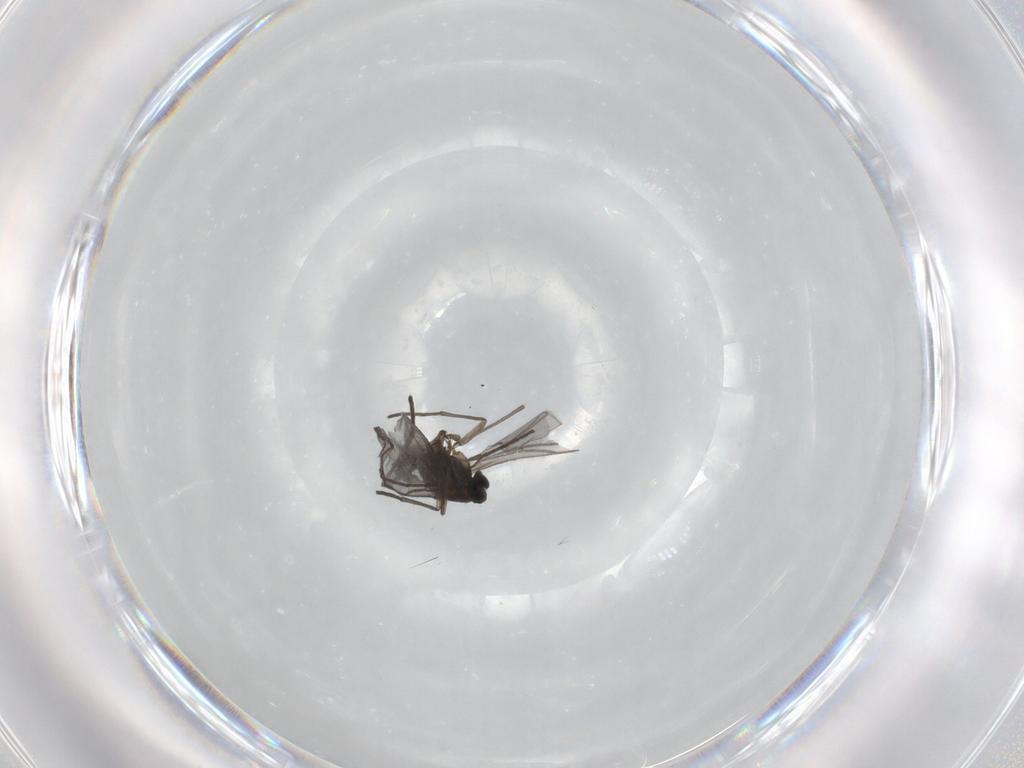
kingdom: Animalia
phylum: Arthropoda
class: Insecta
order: Diptera
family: Sciaridae
